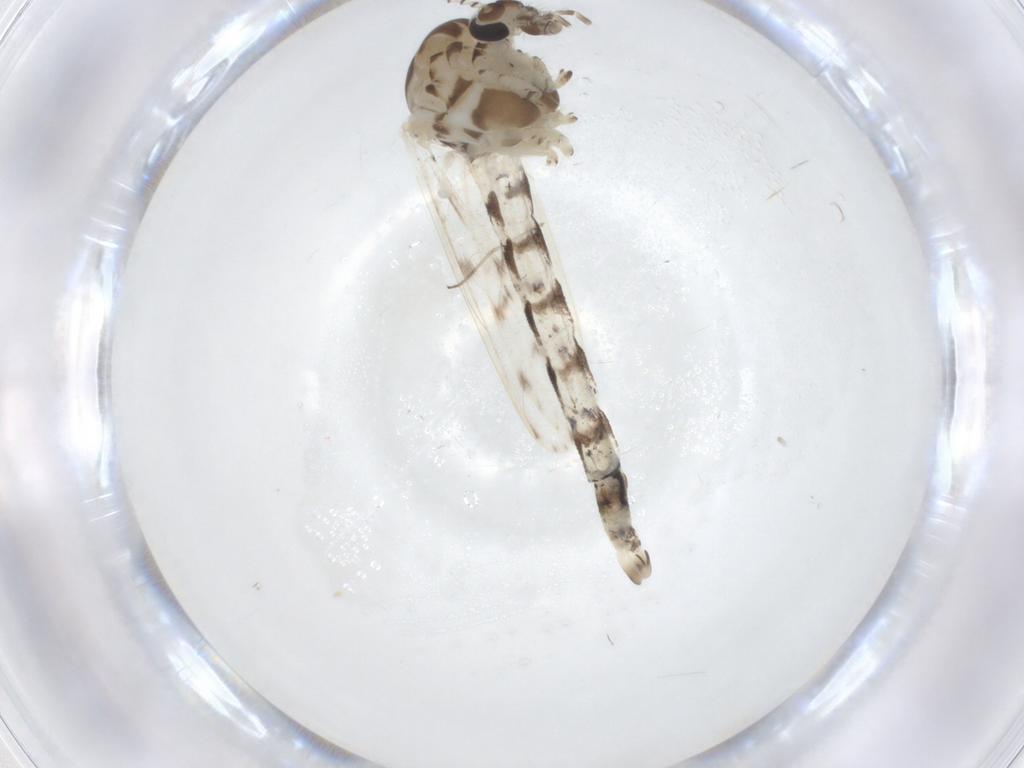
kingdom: Animalia
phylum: Arthropoda
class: Insecta
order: Diptera
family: Chaoboridae
